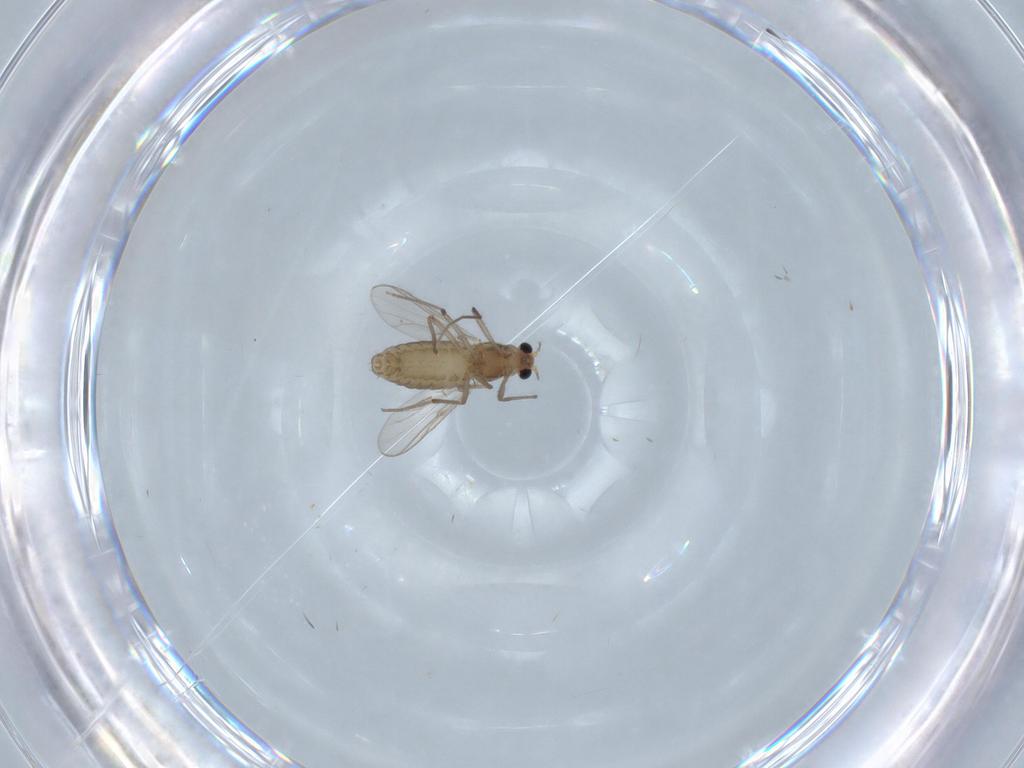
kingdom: Animalia
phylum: Arthropoda
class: Insecta
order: Diptera
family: Chironomidae
